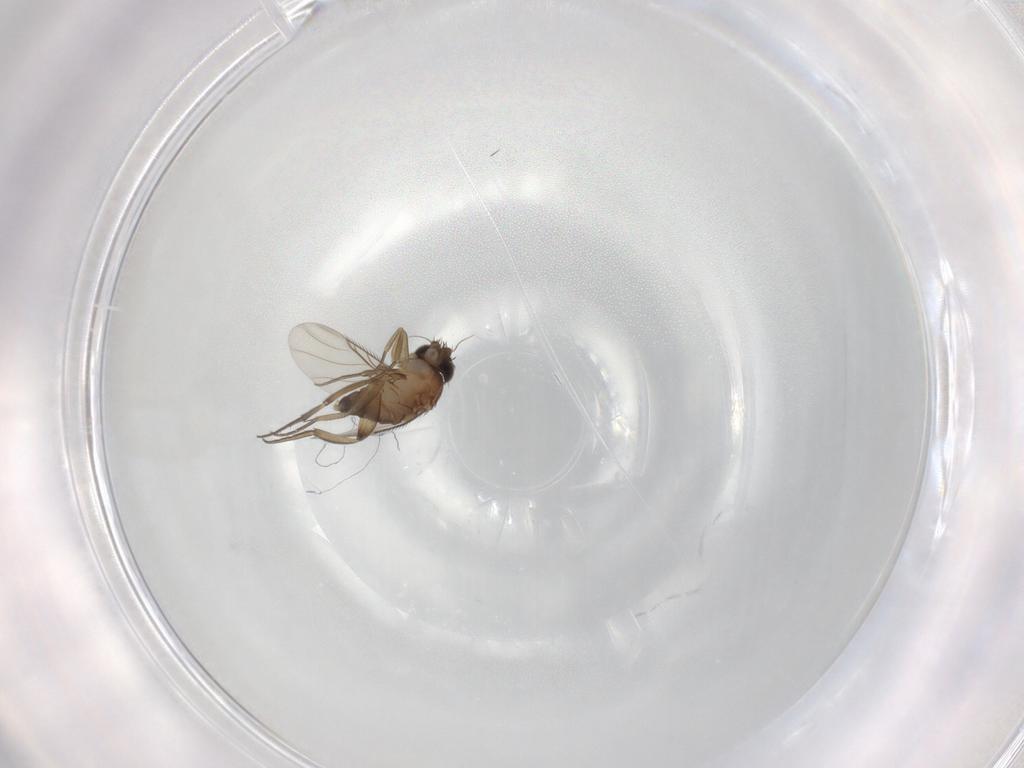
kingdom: Animalia
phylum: Arthropoda
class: Insecta
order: Diptera
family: Phoridae
